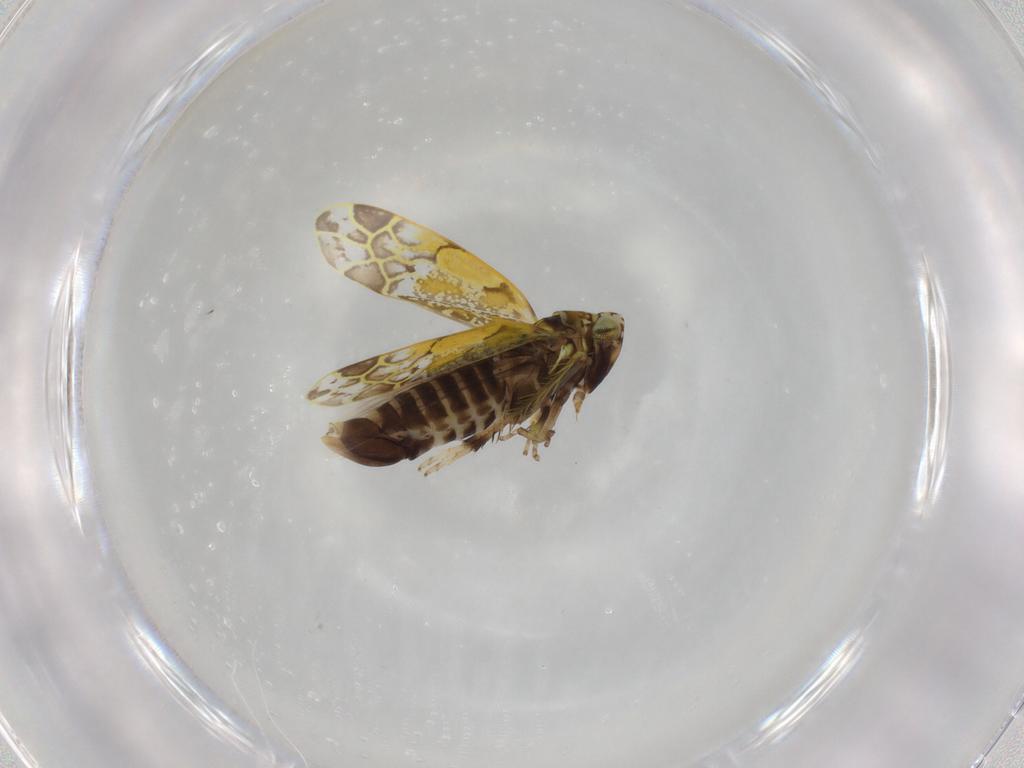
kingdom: Animalia
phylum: Arthropoda
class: Insecta
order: Hemiptera
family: Cicadellidae
